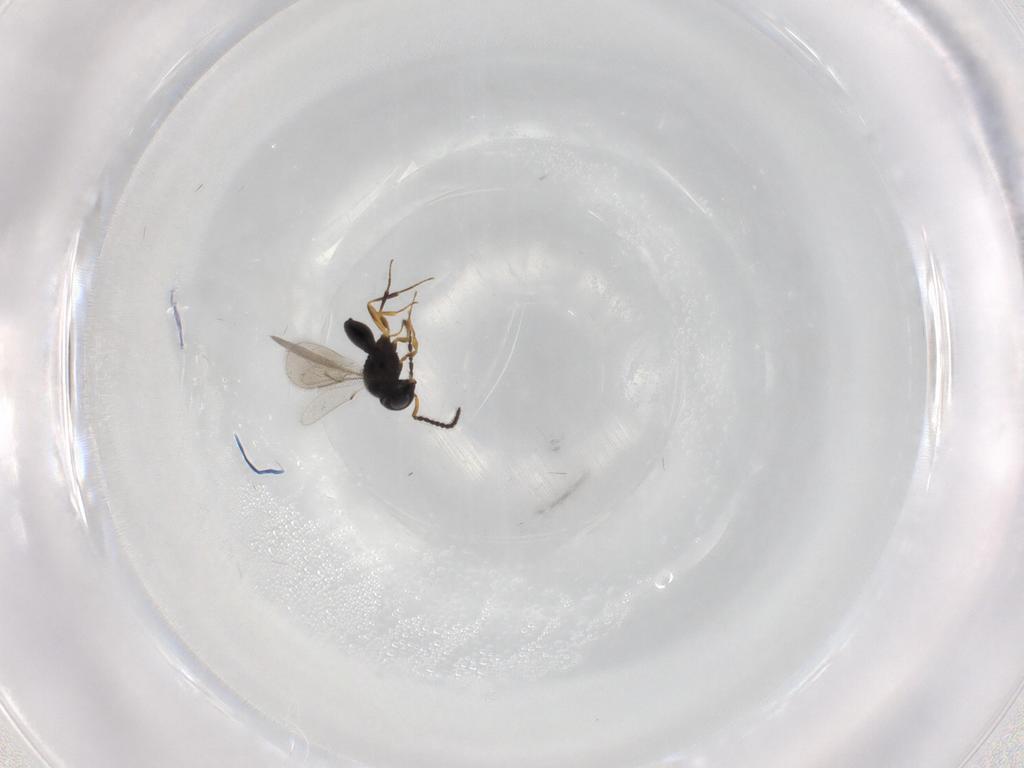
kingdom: Animalia
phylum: Arthropoda
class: Insecta
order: Hymenoptera
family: Scelionidae
